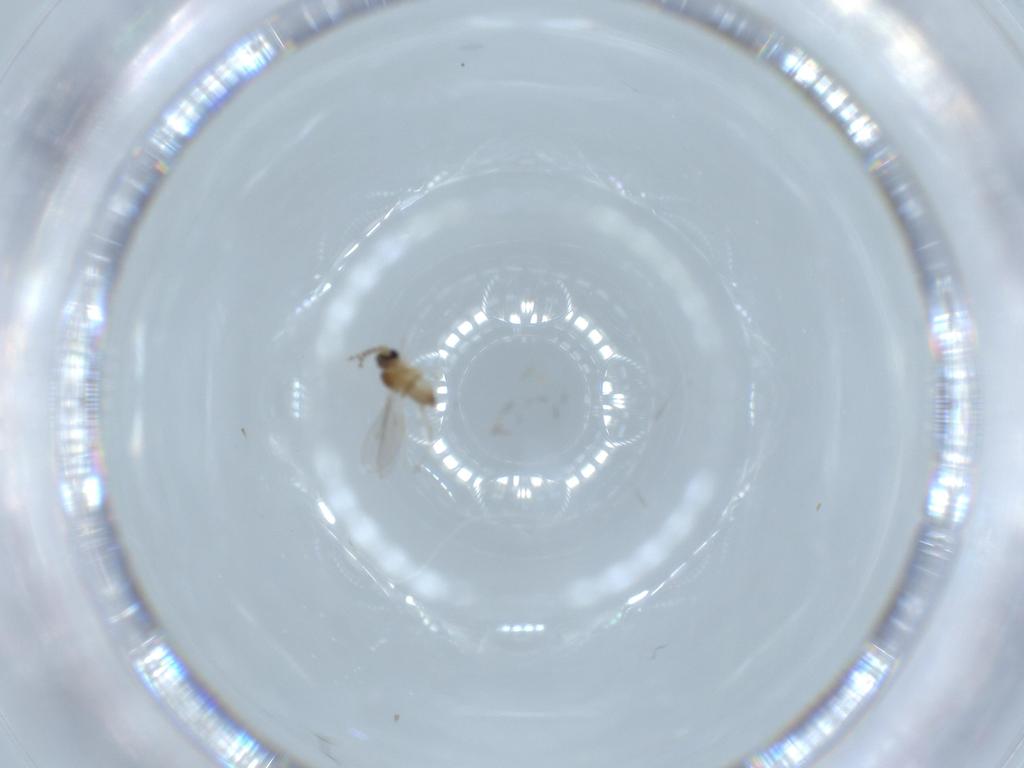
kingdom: Animalia
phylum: Arthropoda
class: Insecta
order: Diptera
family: Cecidomyiidae
